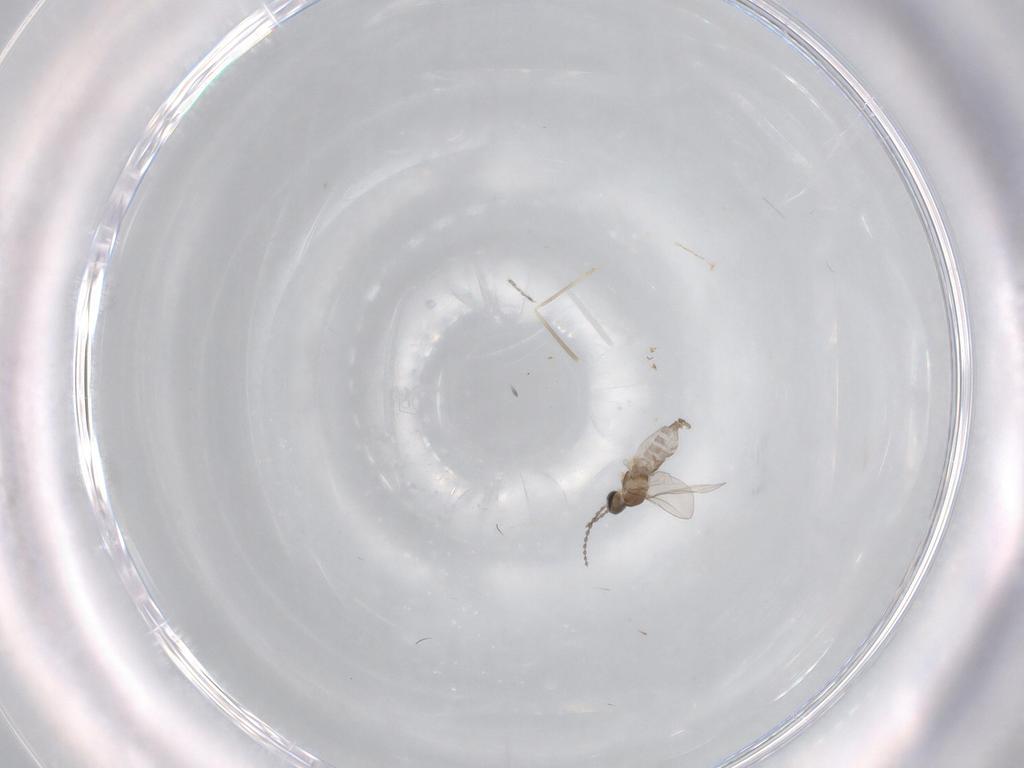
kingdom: Animalia
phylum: Arthropoda
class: Insecta
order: Diptera
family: Cecidomyiidae
